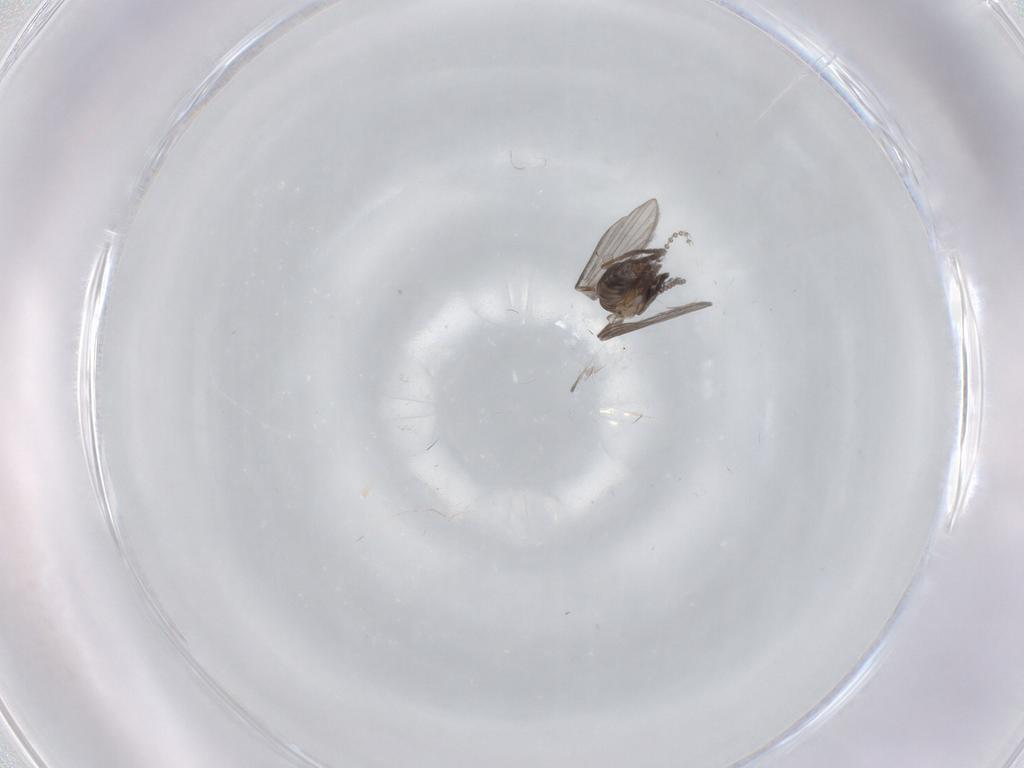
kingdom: Animalia
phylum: Arthropoda
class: Insecta
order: Diptera
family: Psychodidae
